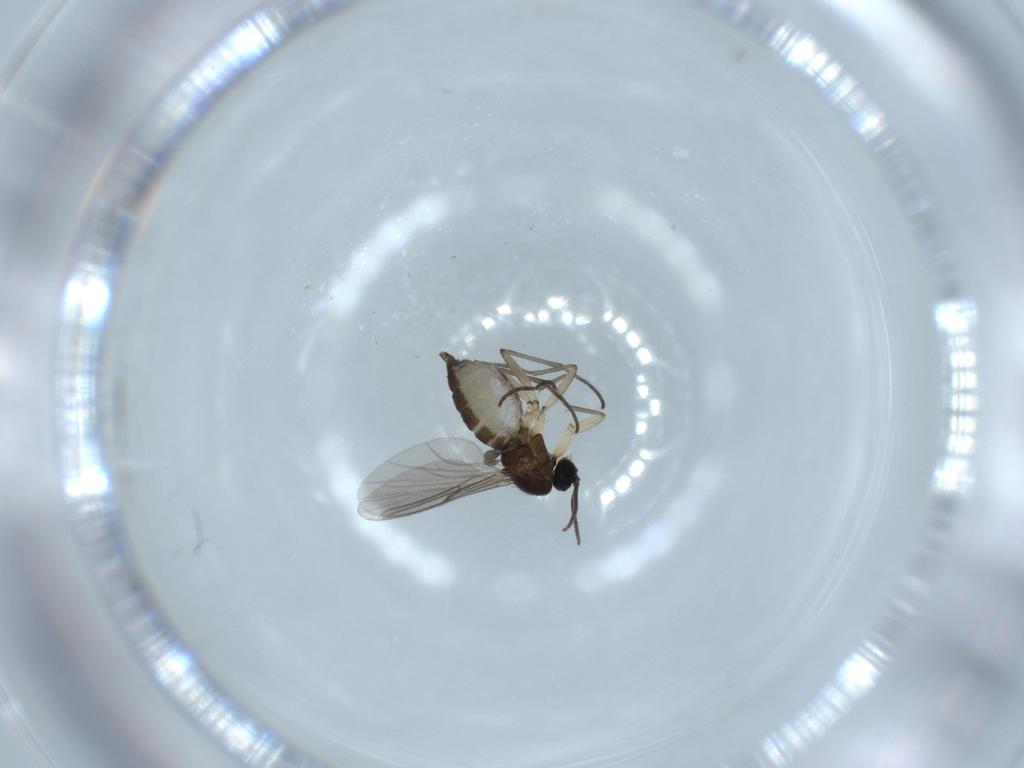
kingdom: Animalia
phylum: Arthropoda
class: Insecta
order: Diptera
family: Sciaridae
